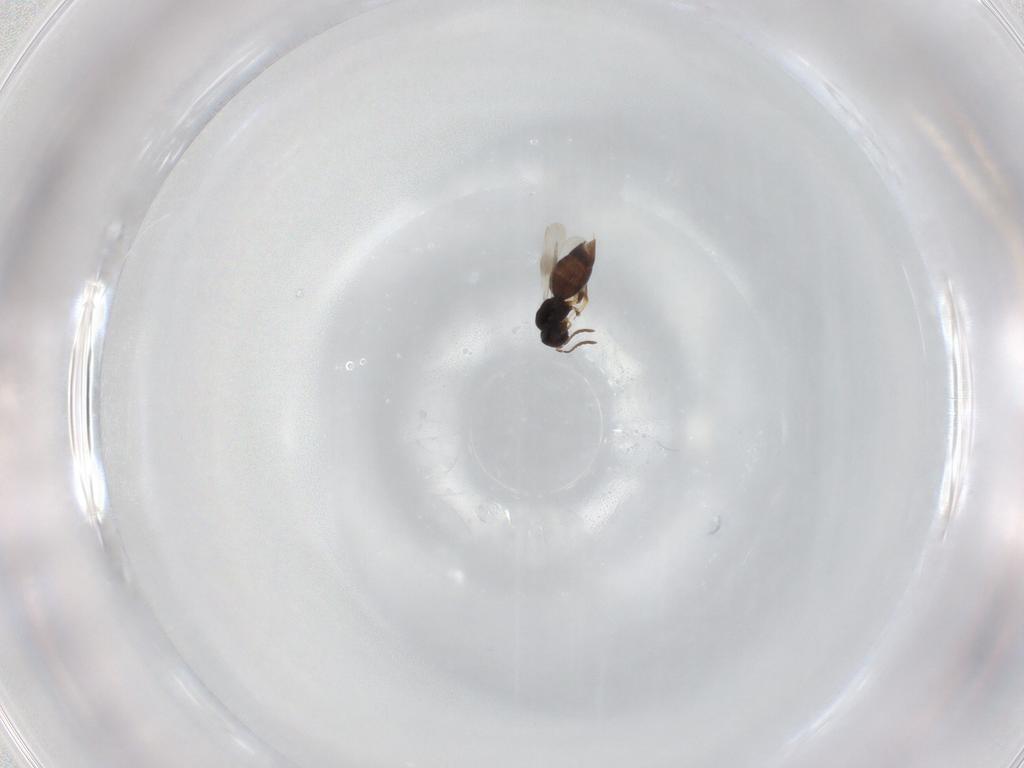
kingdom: Animalia
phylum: Arthropoda
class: Insecta
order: Hymenoptera
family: Scelionidae
